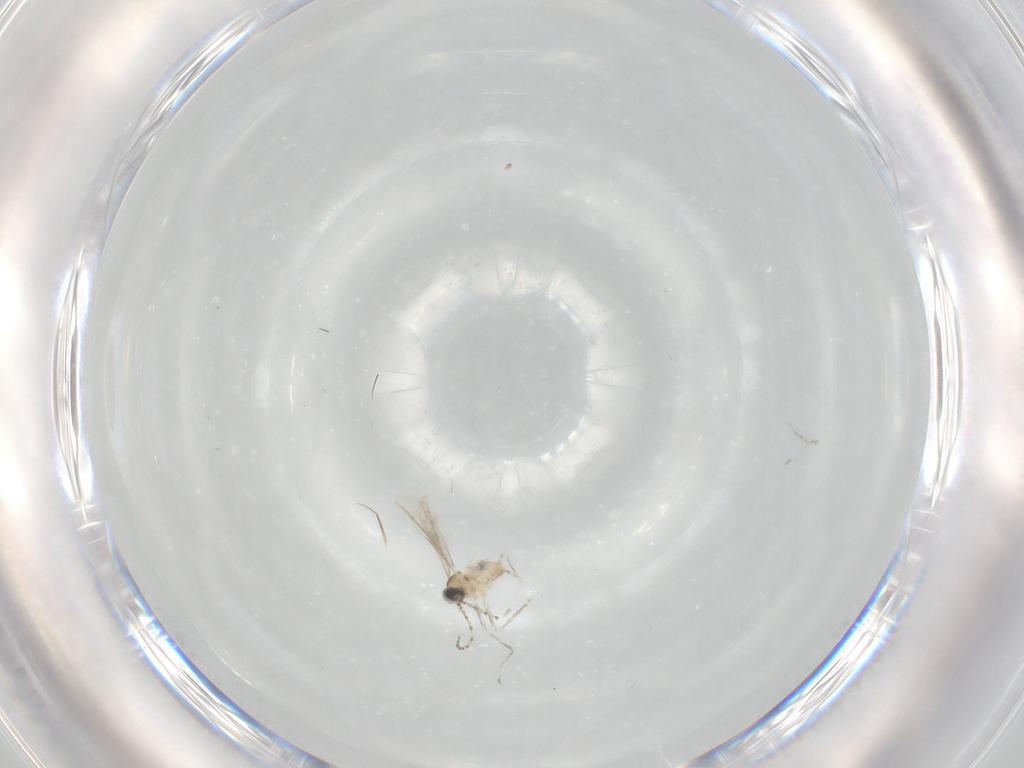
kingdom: Animalia
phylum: Arthropoda
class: Insecta
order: Diptera
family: Cecidomyiidae
